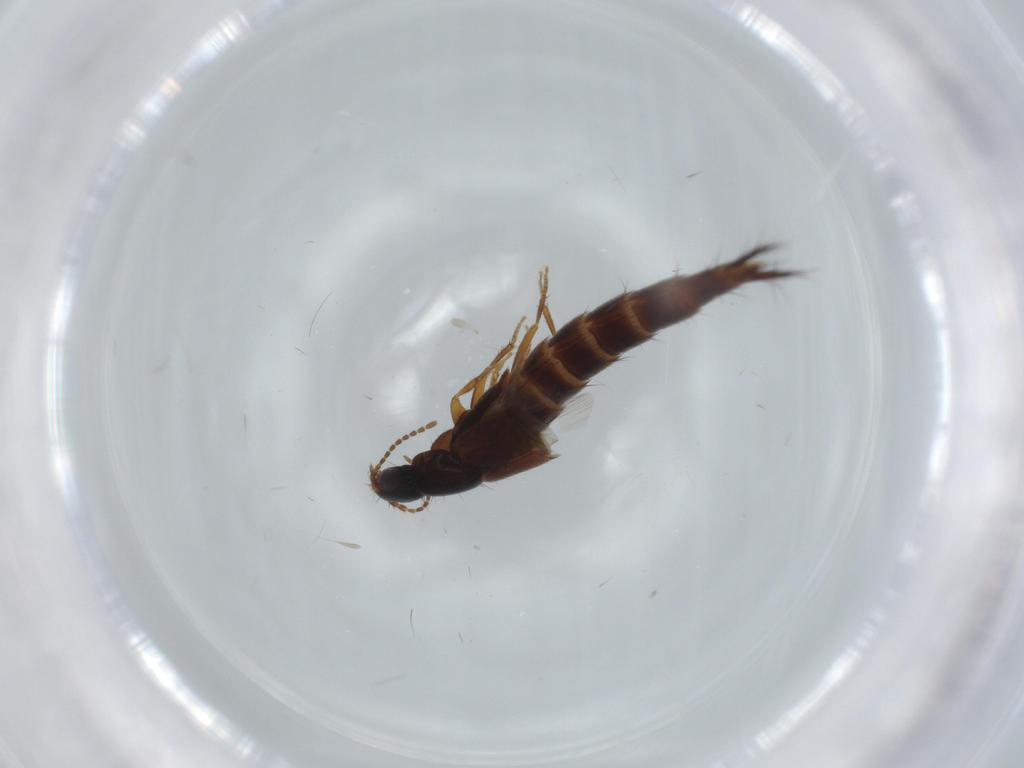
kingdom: Animalia
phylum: Arthropoda
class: Insecta
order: Coleoptera
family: Staphylinidae
